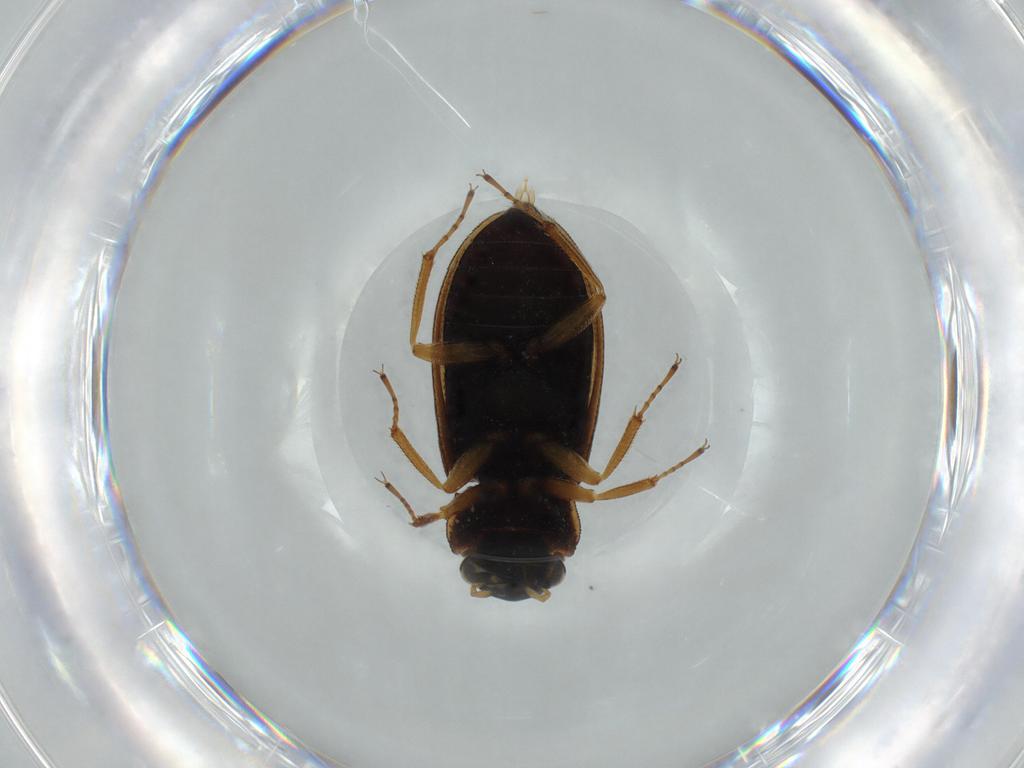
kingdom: Animalia
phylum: Arthropoda
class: Insecta
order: Coleoptera
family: Helophoridae
